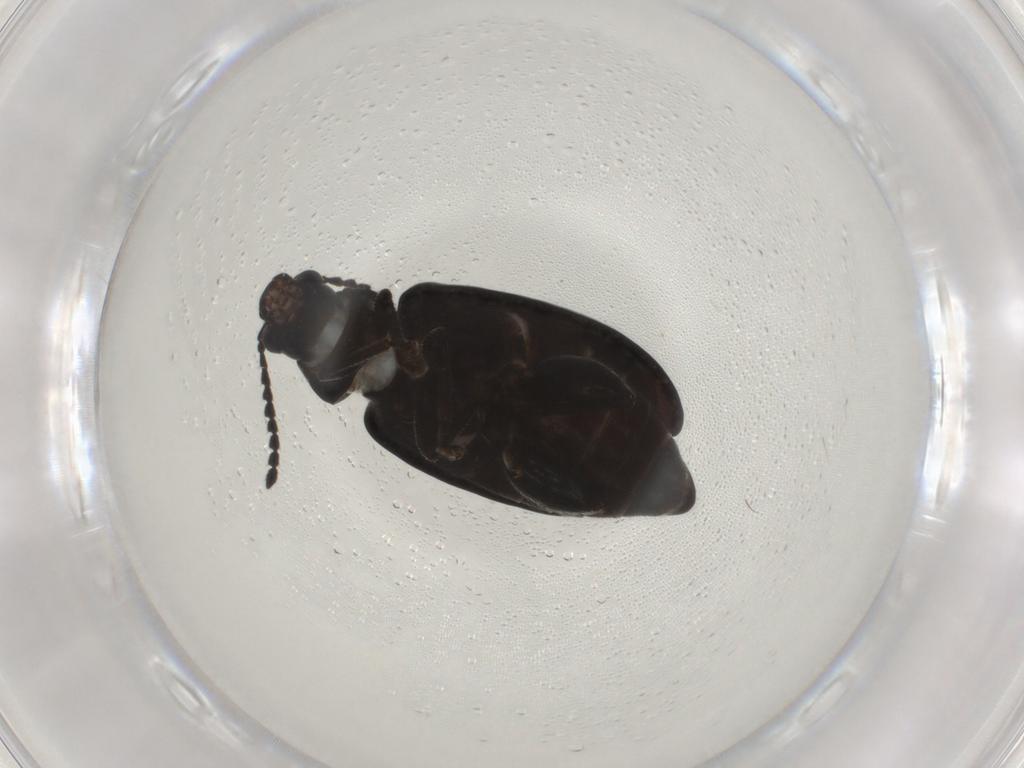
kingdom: Animalia
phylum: Arthropoda
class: Insecta
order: Coleoptera
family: Chrysomelidae
